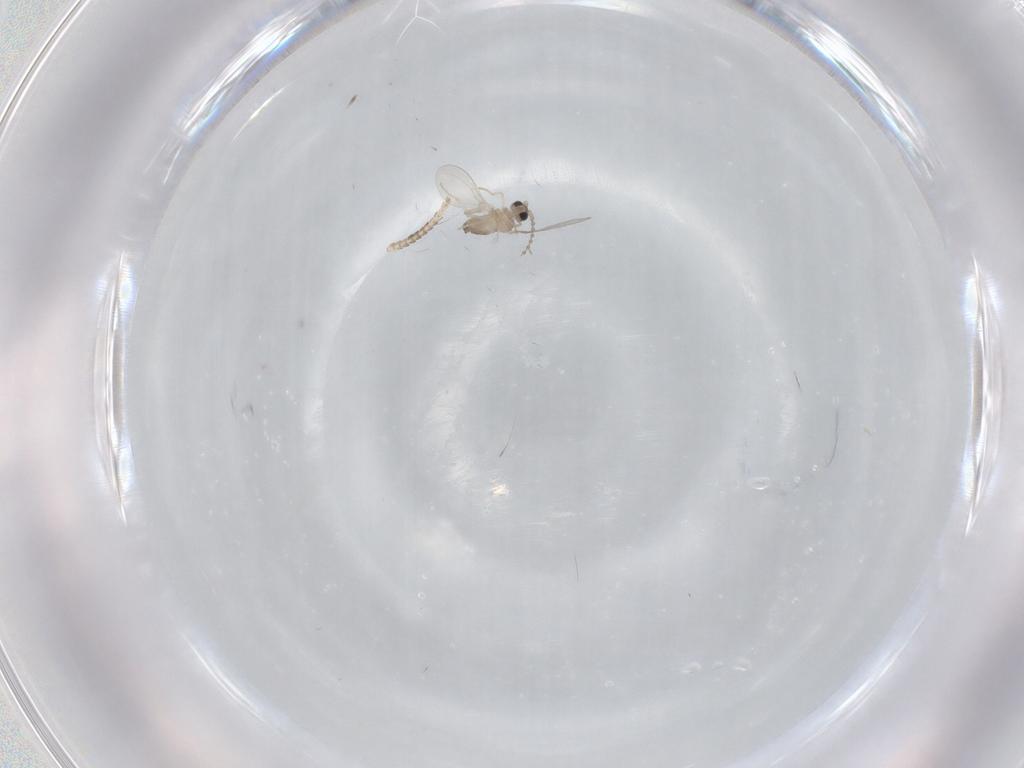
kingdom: Animalia
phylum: Arthropoda
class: Insecta
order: Diptera
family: Cecidomyiidae
